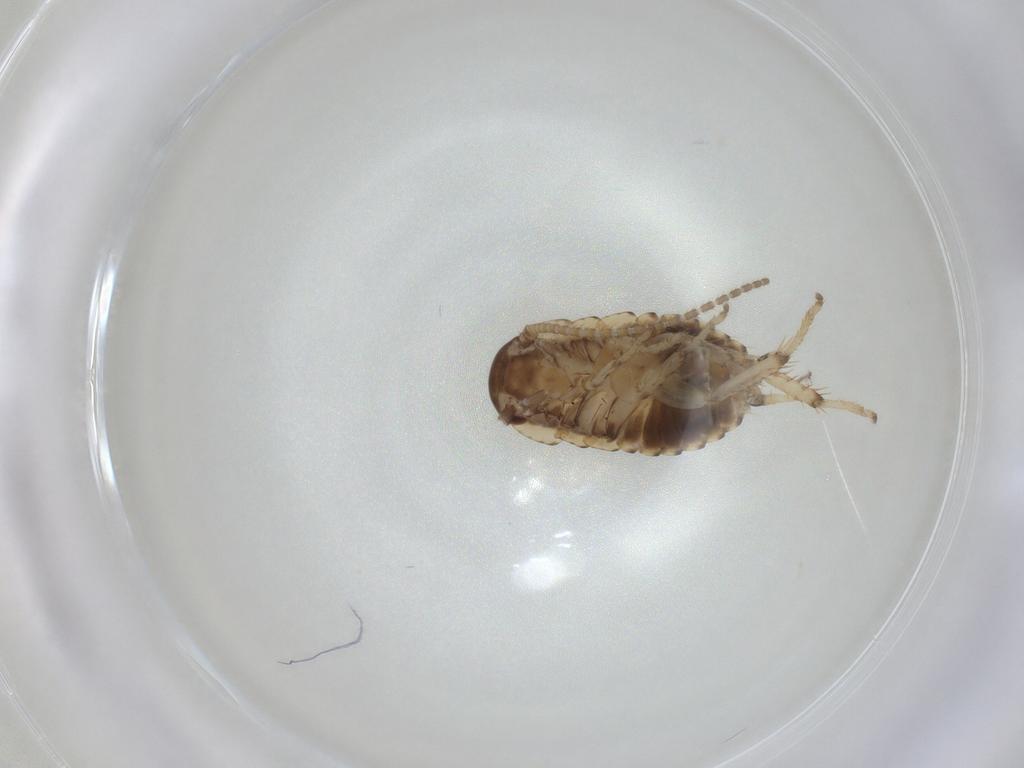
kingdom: Animalia
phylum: Arthropoda
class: Insecta
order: Blattodea
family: Blaberidae
